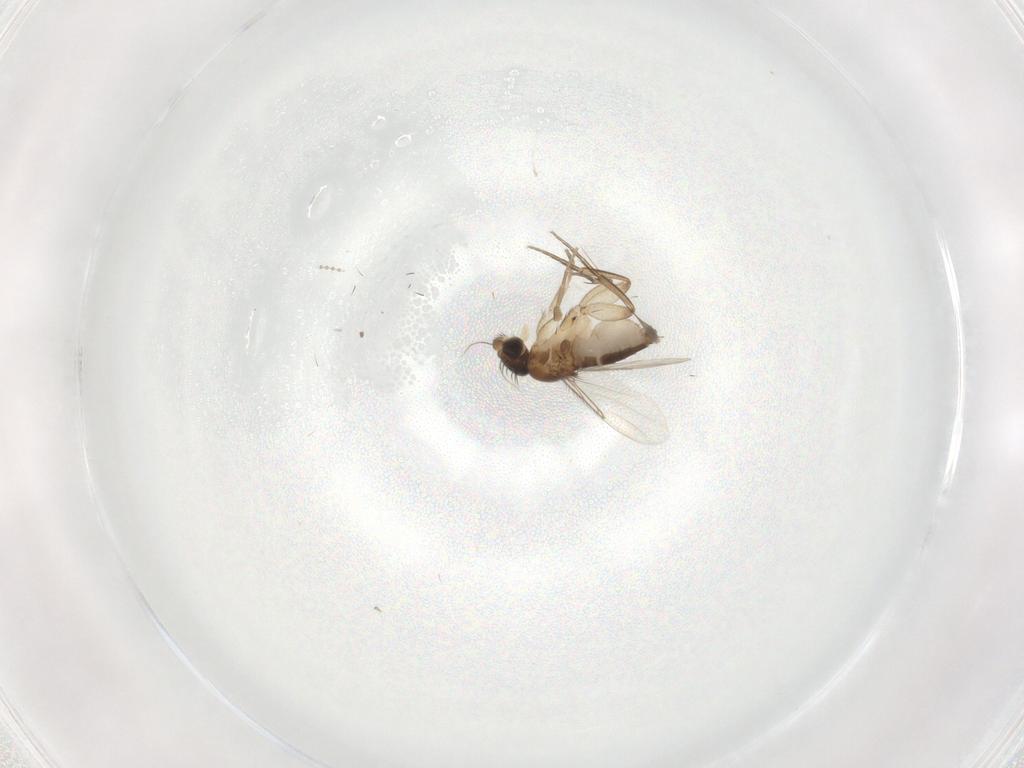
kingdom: Animalia
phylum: Arthropoda
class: Insecta
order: Diptera
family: Phoridae
